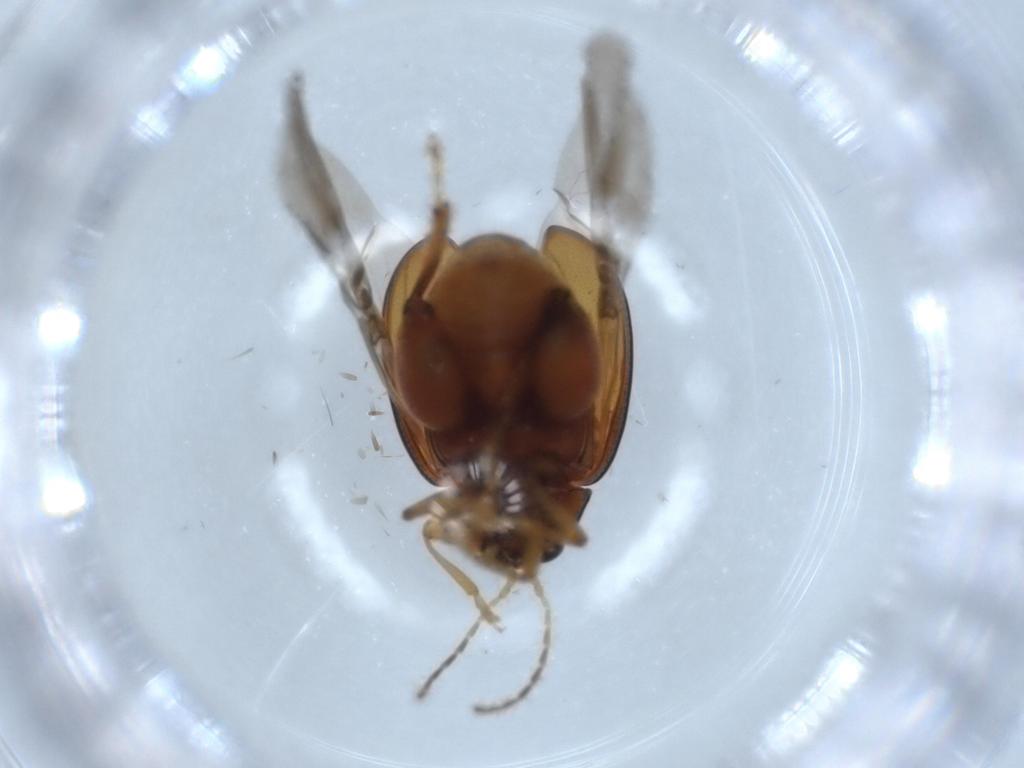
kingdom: Animalia
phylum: Arthropoda
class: Insecta
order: Coleoptera
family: Chrysomelidae
